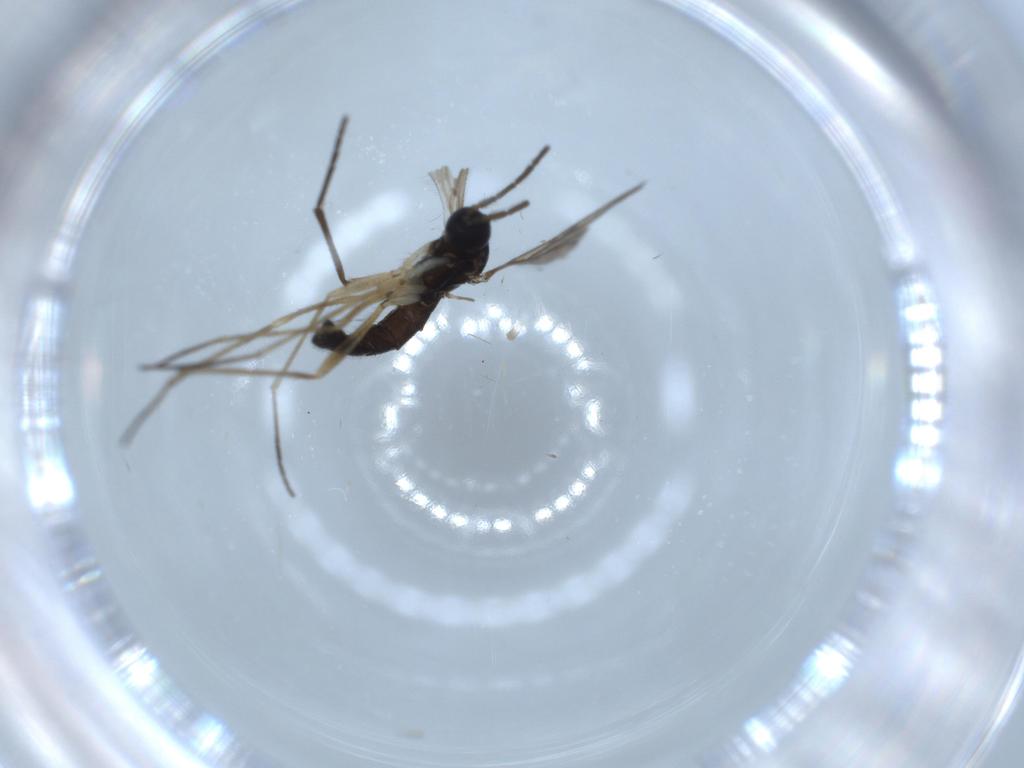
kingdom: Animalia
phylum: Arthropoda
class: Insecta
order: Diptera
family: Sciaridae
